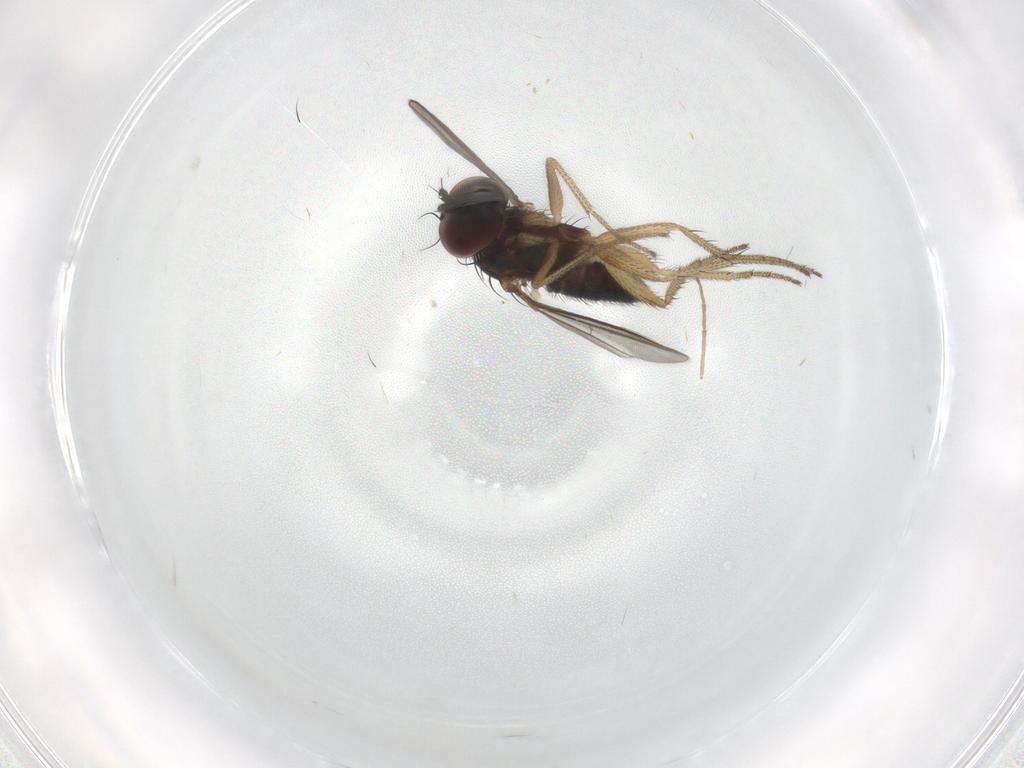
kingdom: Animalia
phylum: Arthropoda
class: Insecta
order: Diptera
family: Dolichopodidae
